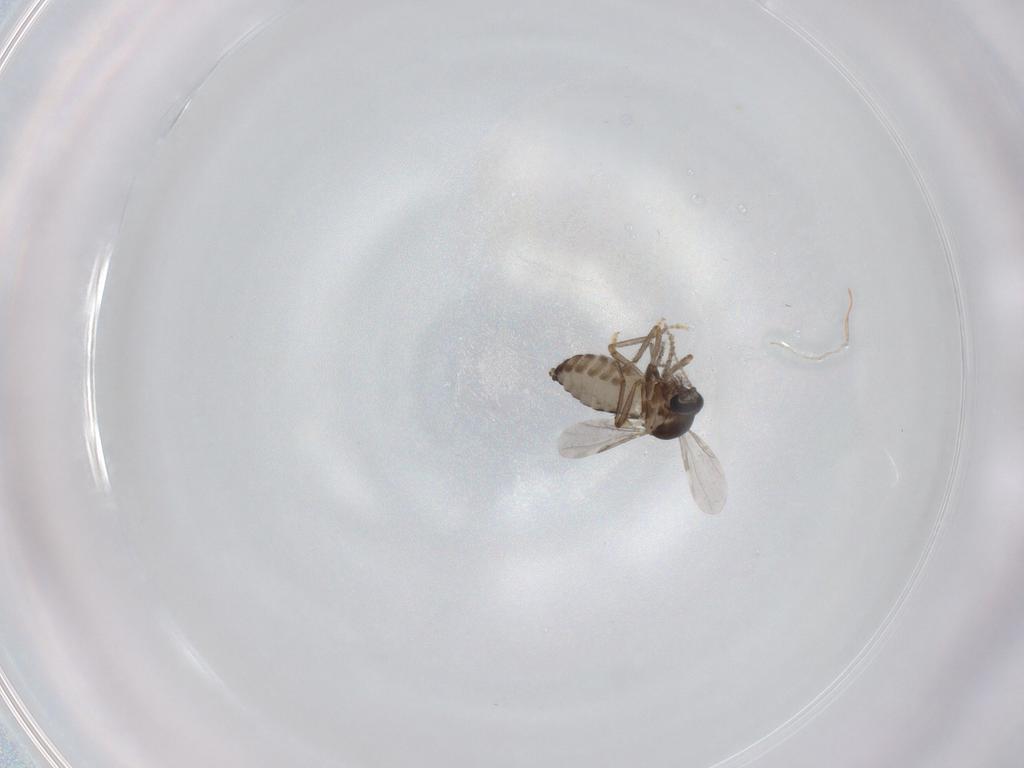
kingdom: Animalia
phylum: Arthropoda
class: Insecta
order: Diptera
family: Ceratopogonidae
